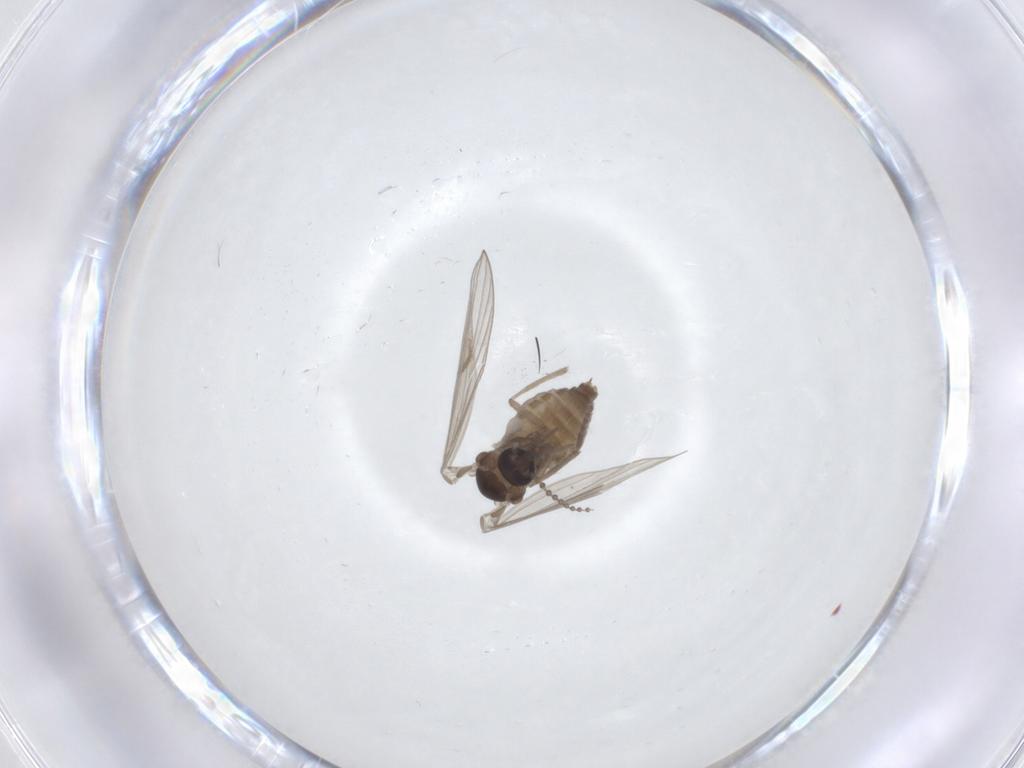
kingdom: Animalia
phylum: Arthropoda
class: Insecta
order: Diptera
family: Psychodidae
